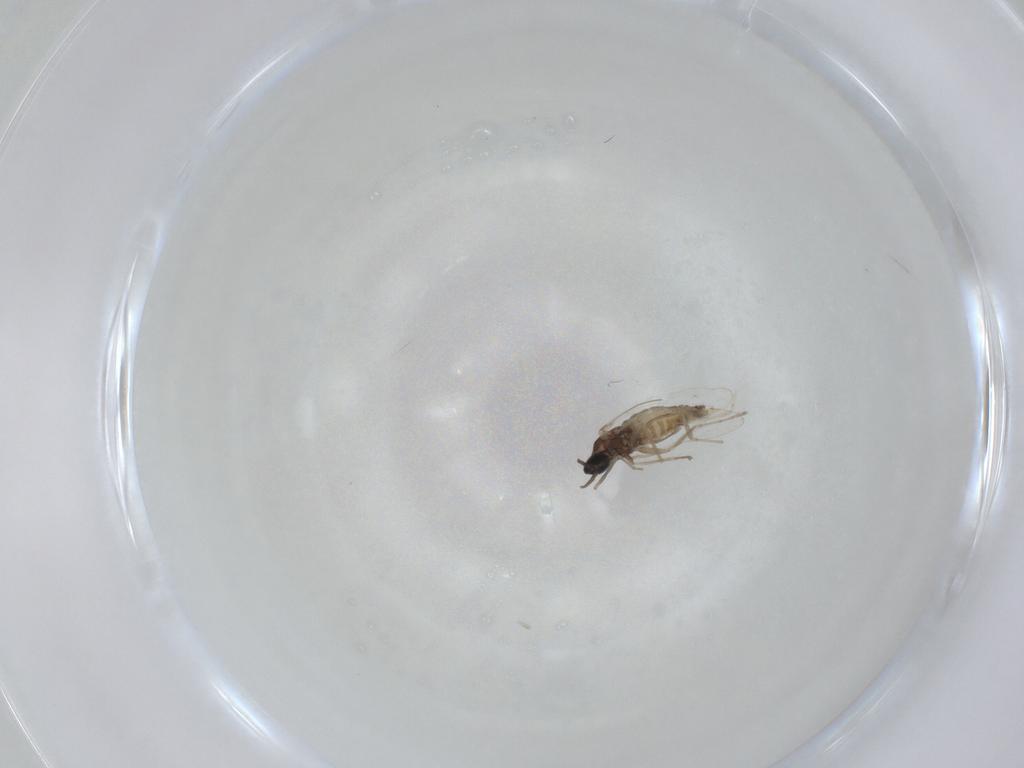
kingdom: Animalia
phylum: Arthropoda
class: Insecta
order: Diptera
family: Cecidomyiidae
